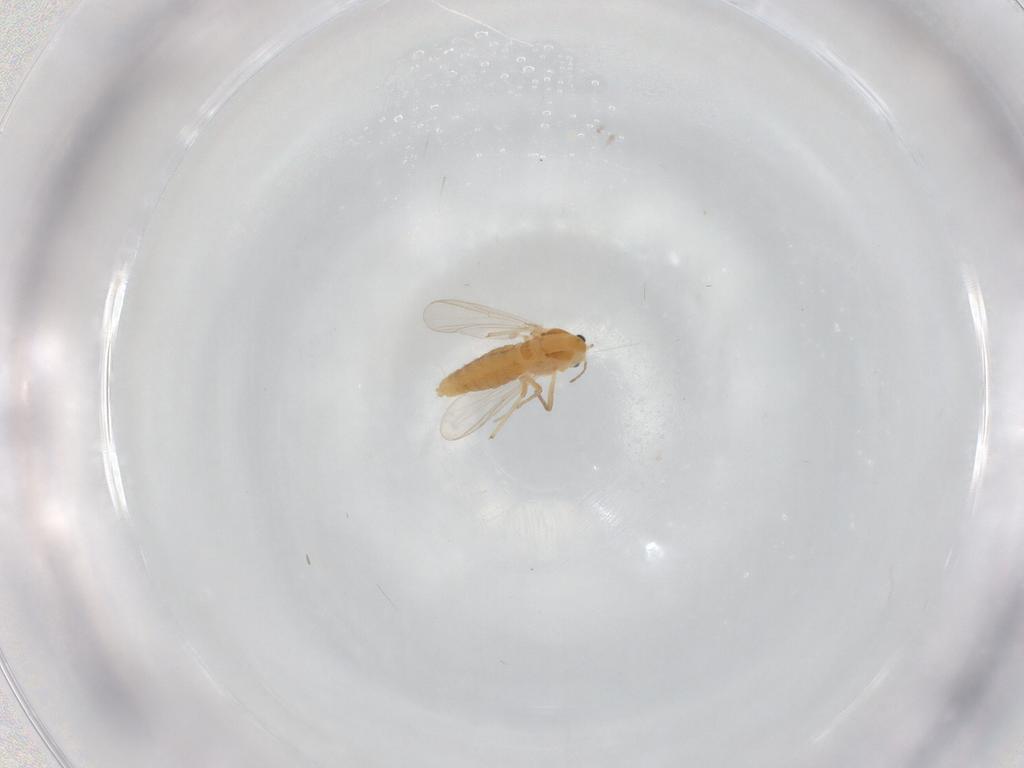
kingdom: Animalia
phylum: Arthropoda
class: Insecta
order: Diptera
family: Chironomidae
